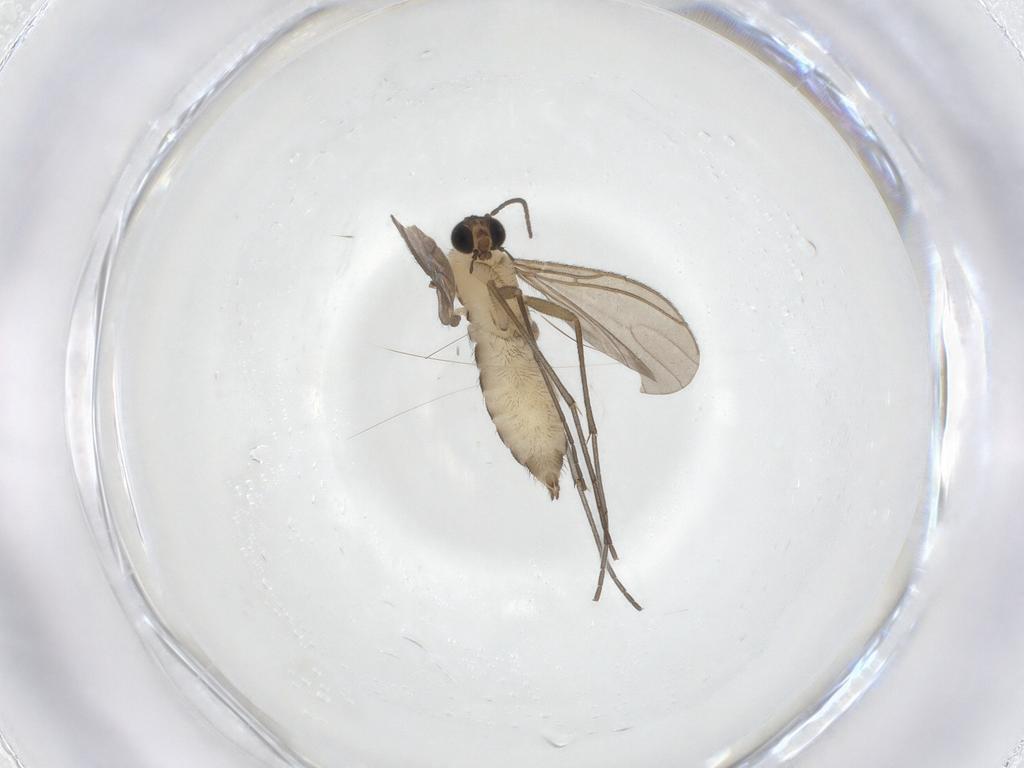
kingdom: Animalia
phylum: Arthropoda
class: Insecta
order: Diptera
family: Sciaridae
